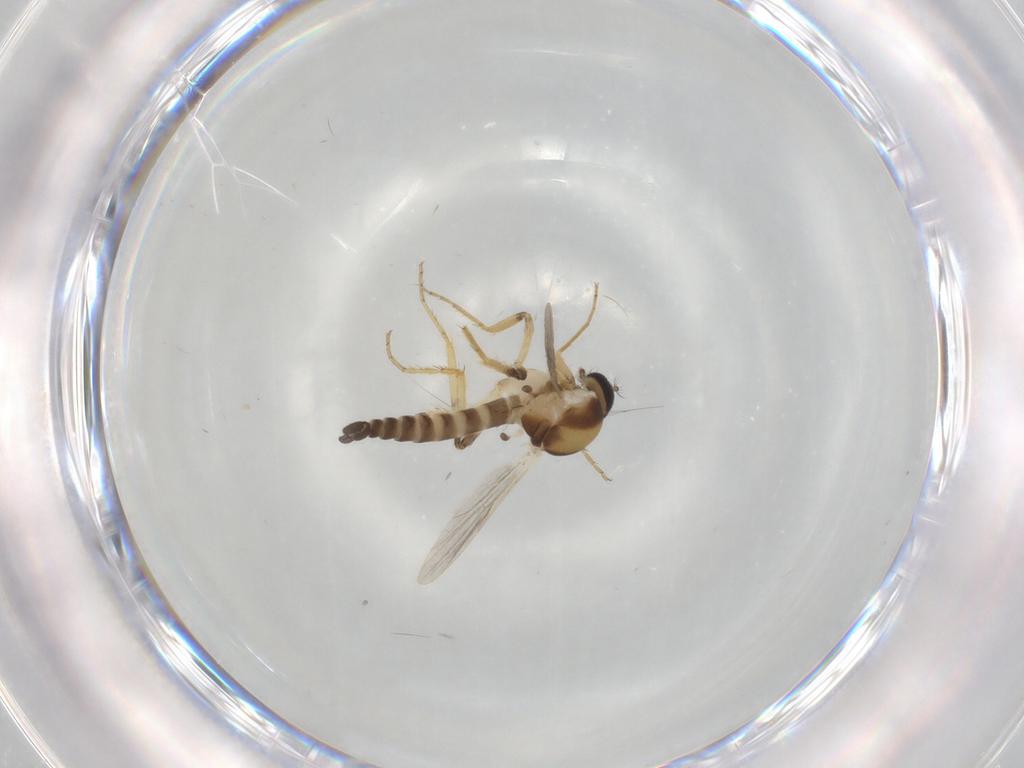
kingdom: Animalia
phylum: Arthropoda
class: Insecta
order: Diptera
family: Ceratopogonidae
